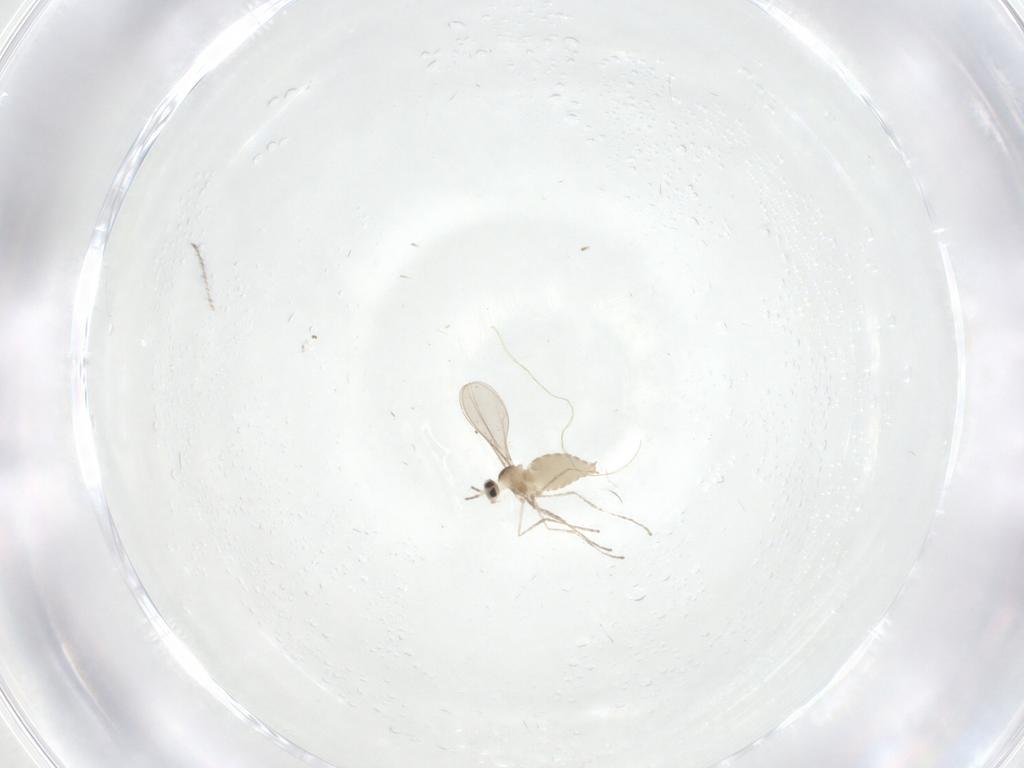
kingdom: Animalia
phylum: Arthropoda
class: Insecta
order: Diptera
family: Cecidomyiidae
